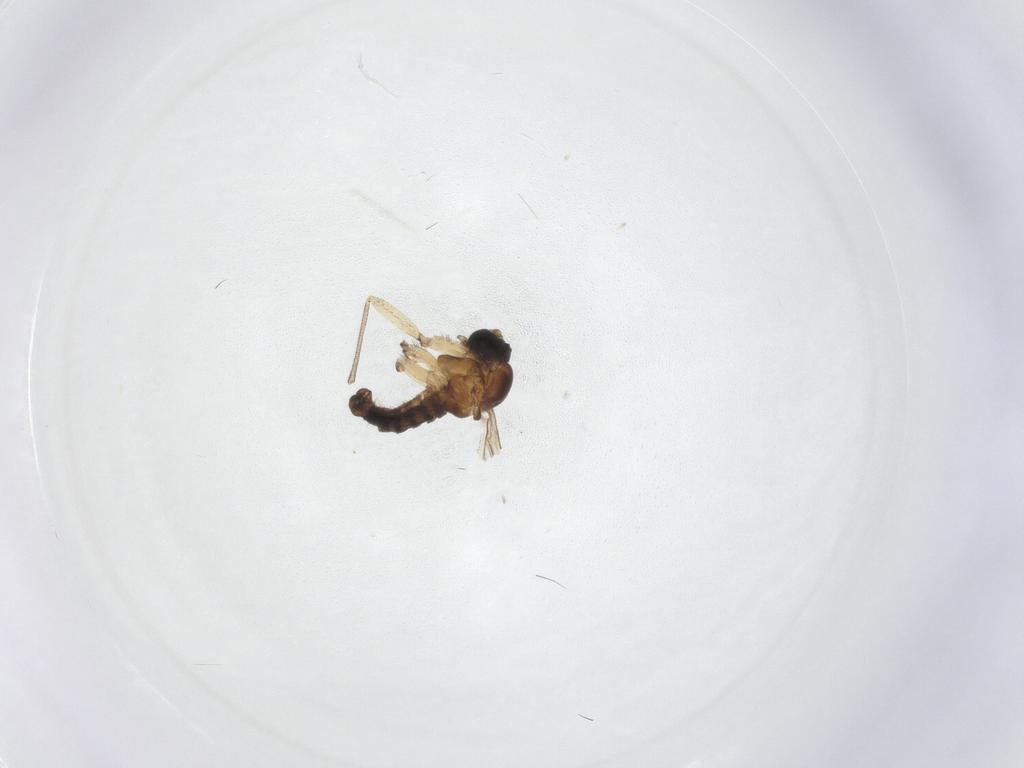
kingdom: Animalia
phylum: Arthropoda
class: Insecta
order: Diptera
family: Sciaridae
